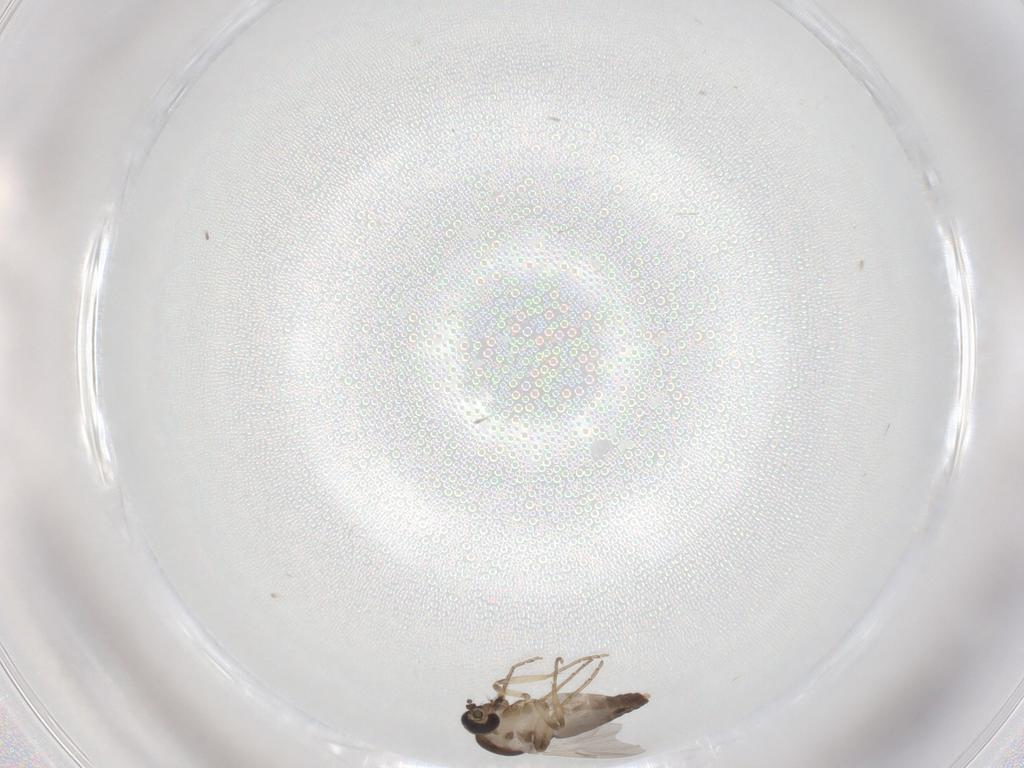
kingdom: Animalia
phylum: Arthropoda
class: Insecta
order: Diptera
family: Ceratopogonidae
